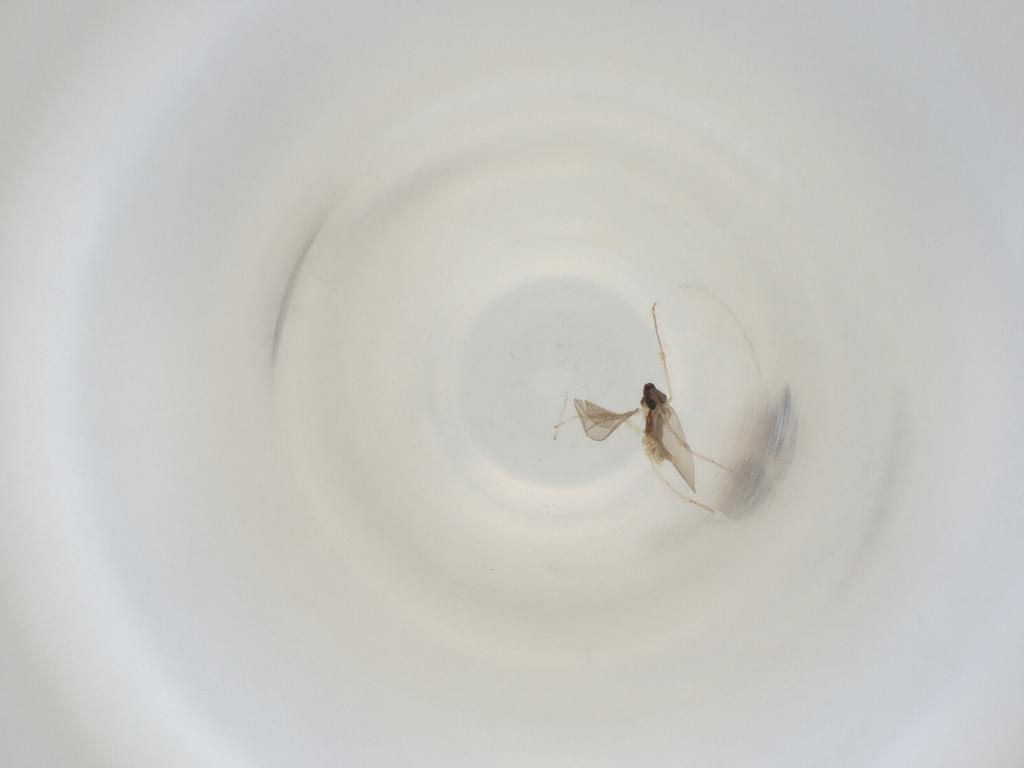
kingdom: Animalia
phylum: Arthropoda
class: Insecta
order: Diptera
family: Cecidomyiidae
